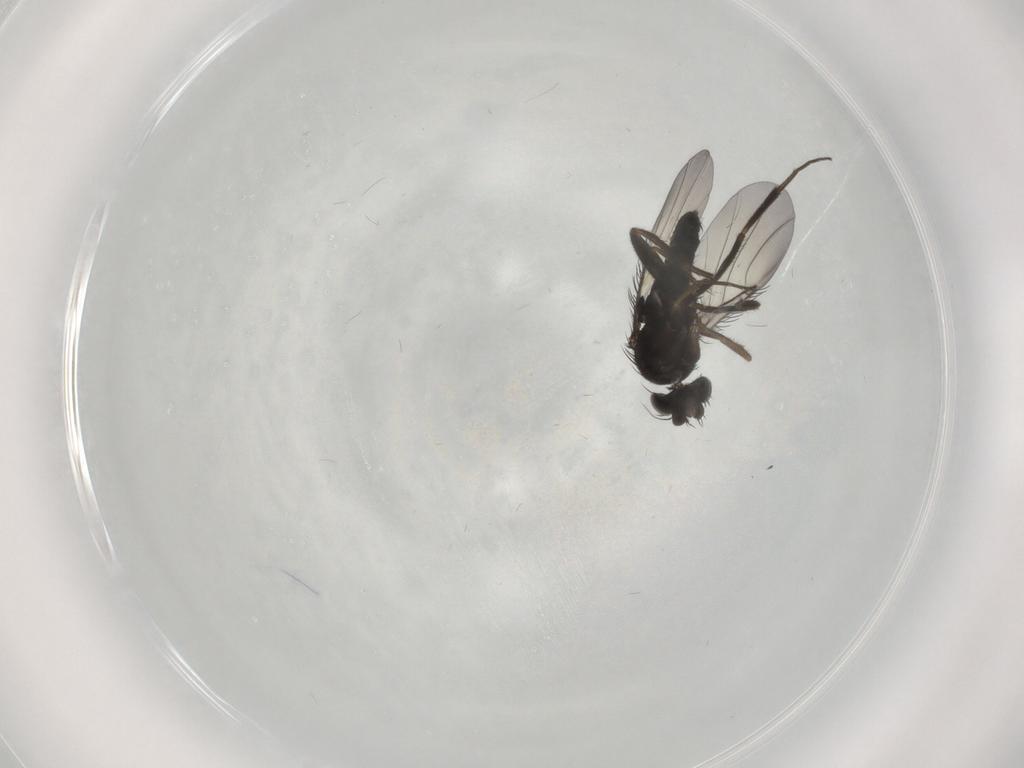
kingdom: Animalia
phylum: Arthropoda
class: Insecta
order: Diptera
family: Phoridae
